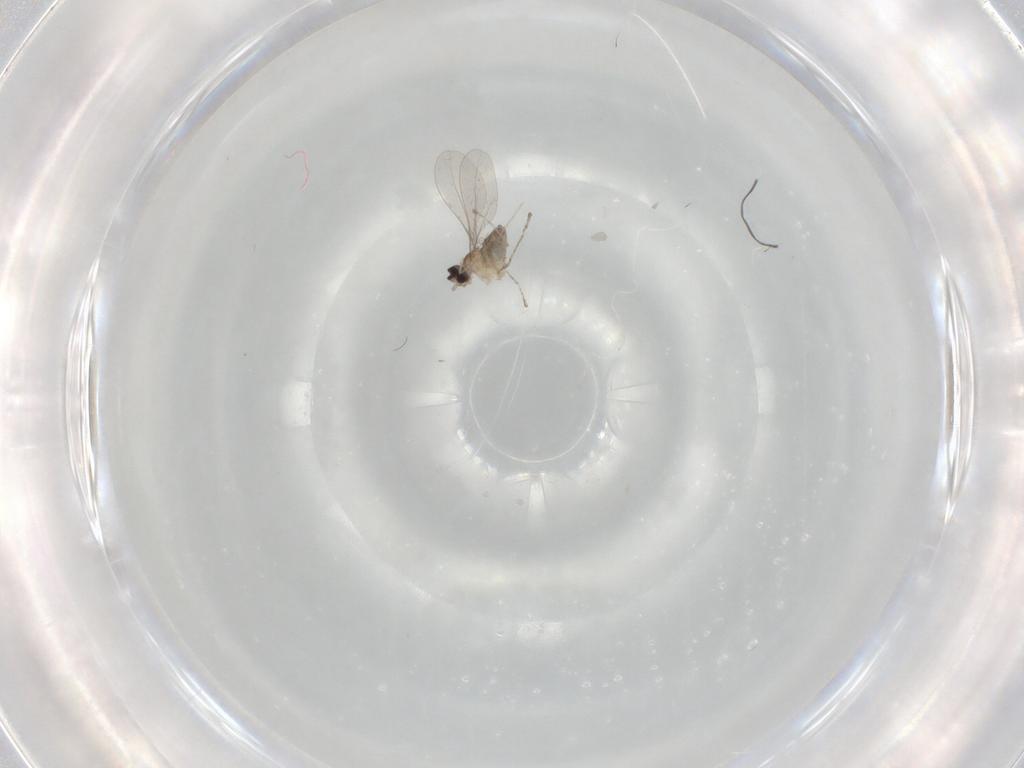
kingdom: Animalia
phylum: Arthropoda
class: Insecta
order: Diptera
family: Cecidomyiidae
